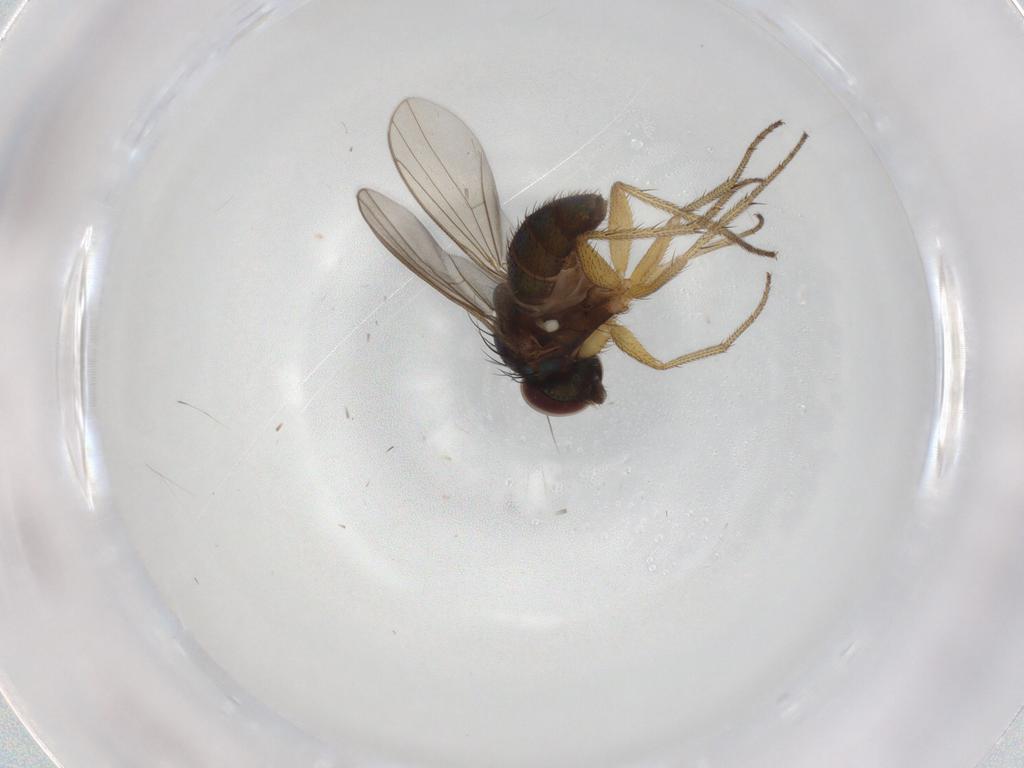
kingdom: Animalia
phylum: Arthropoda
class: Insecta
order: Diptera
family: Dolichopodidae
